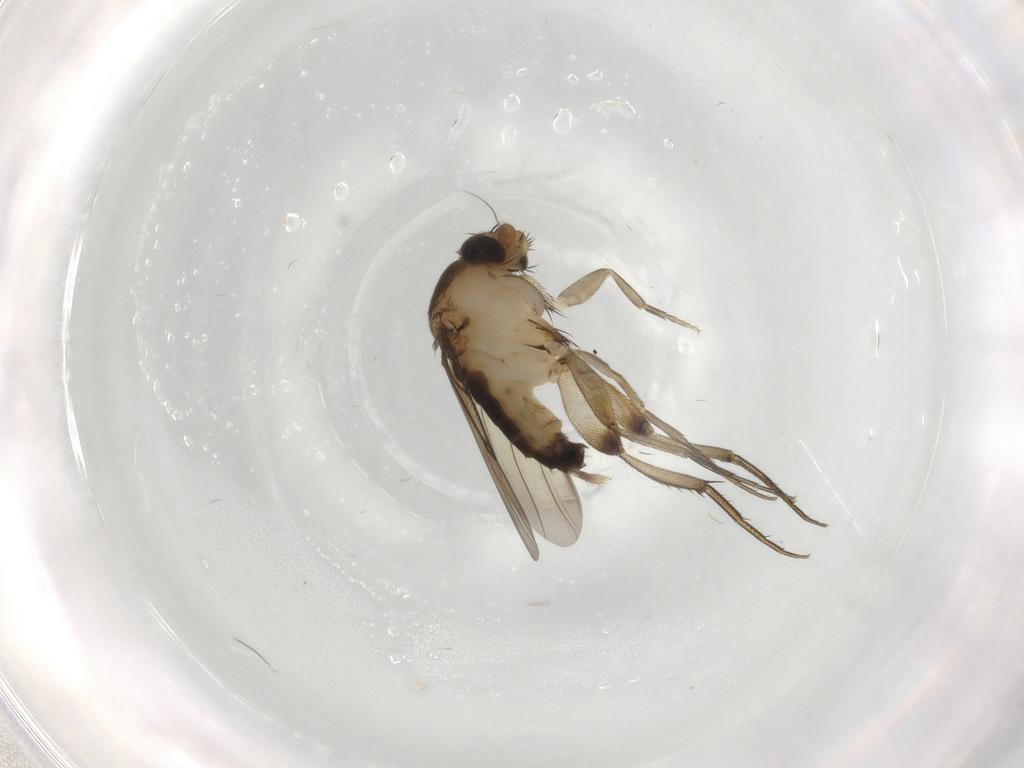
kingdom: Animalia
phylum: Arthropoda
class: Insecta
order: Diptera
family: Phoridae
